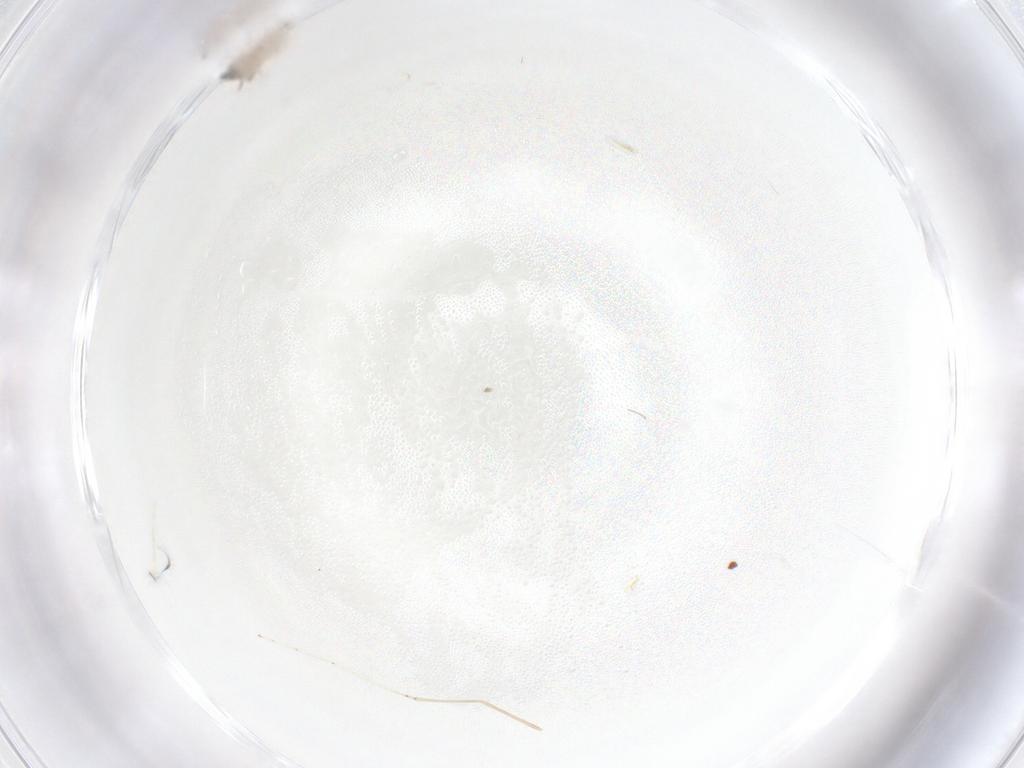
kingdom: Animalia
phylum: Arthropoda
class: Insecta
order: Diptera
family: Cecidomyiidae
